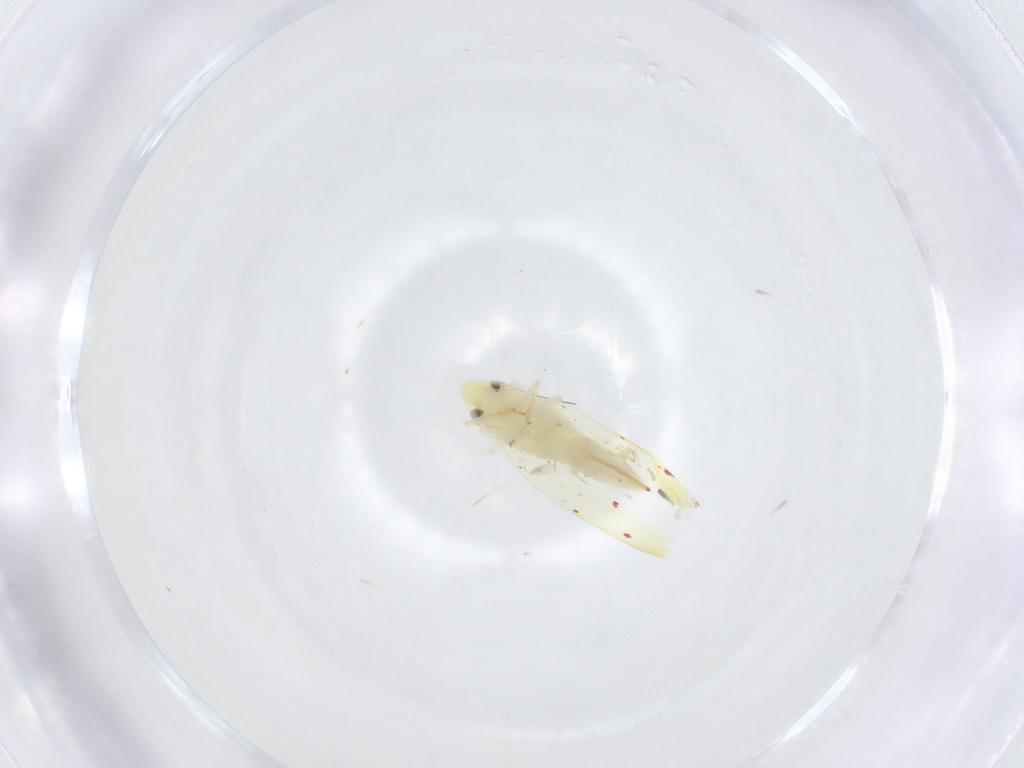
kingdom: Animalia
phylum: Arthropoda
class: Insecta
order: Hemiptera
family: Cicadellidae
